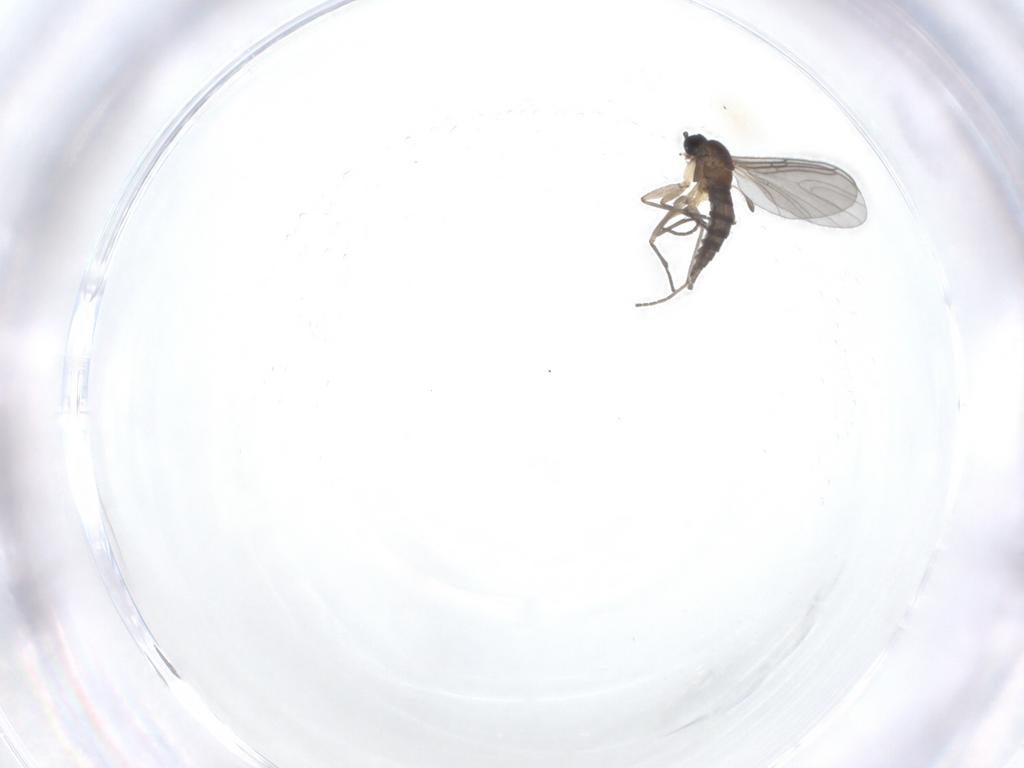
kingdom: Animalia
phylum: Arthropoda
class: Insecta
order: Diptera
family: Sciaridae
